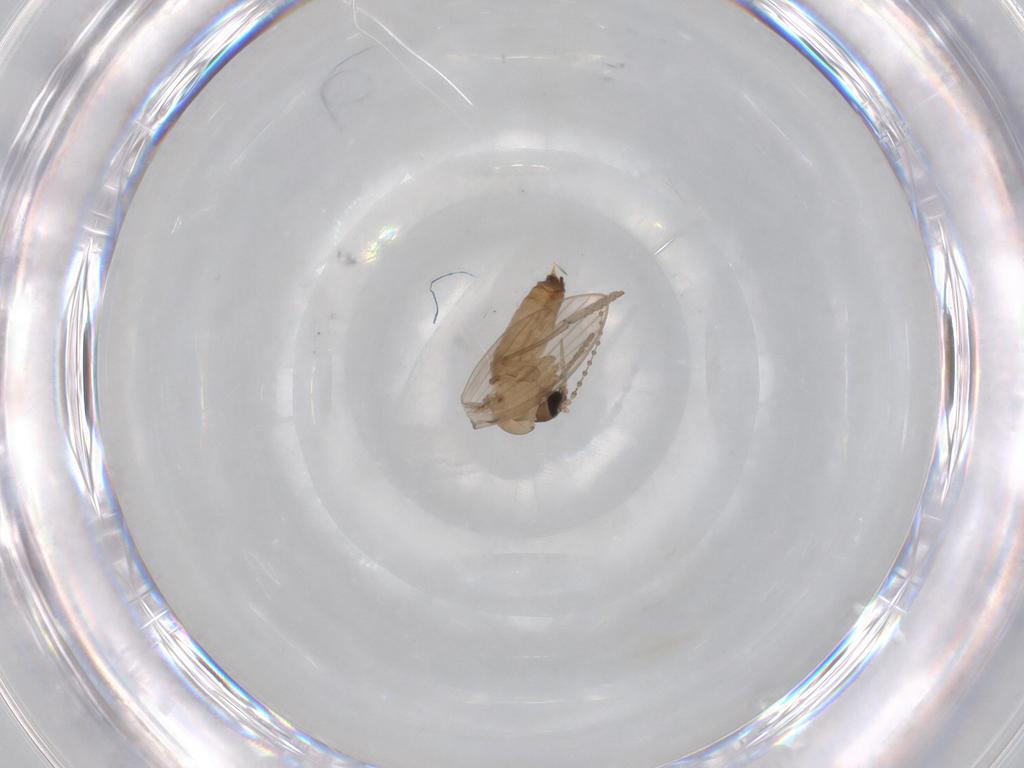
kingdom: Animalia
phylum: Arthropoda
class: Insecta
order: Diptera
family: Psychodidae
